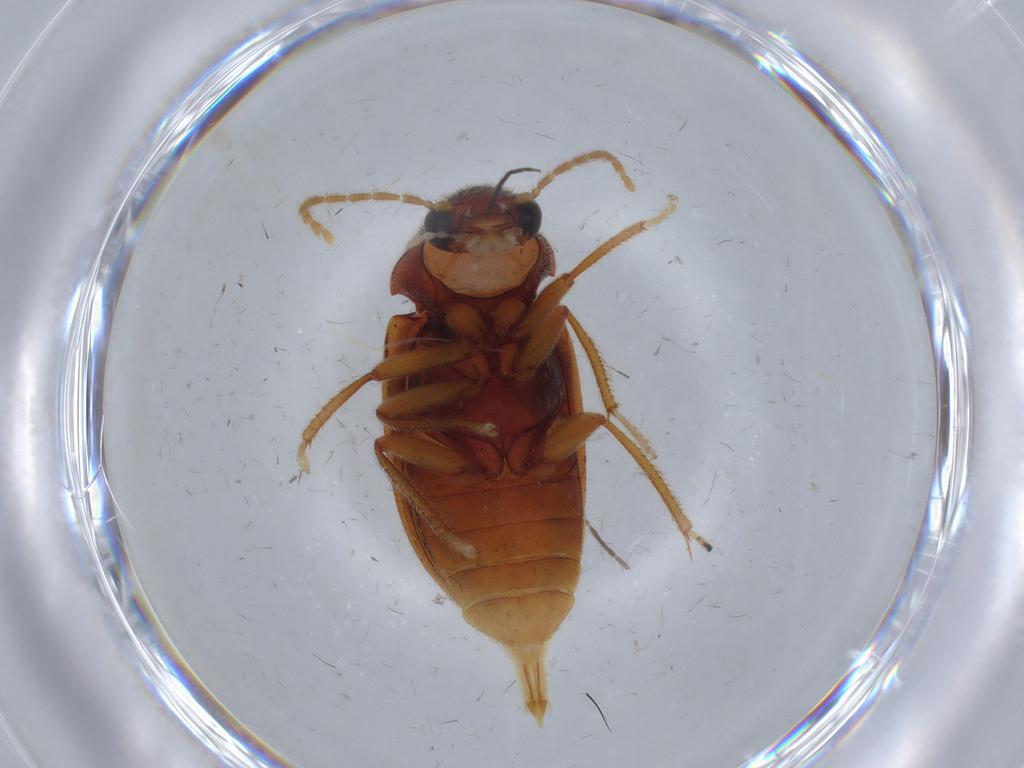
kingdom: Animalia
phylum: Arthropoda
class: Insecta
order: Coleoptera
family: Ptilodactylidae
